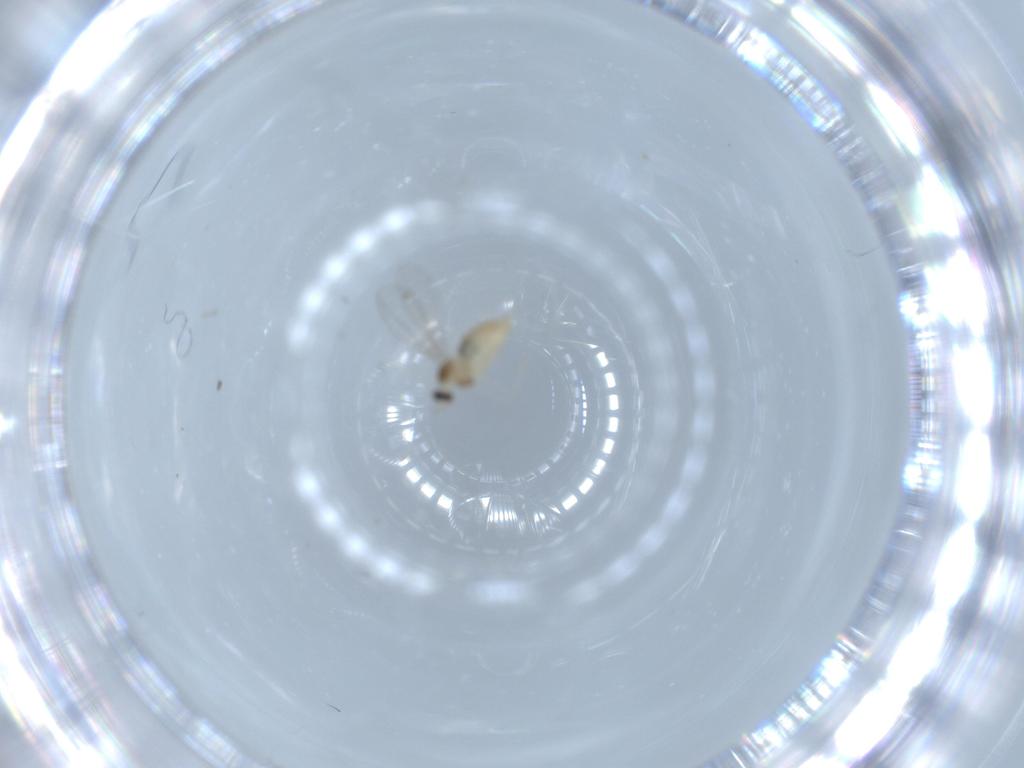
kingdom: Animalia
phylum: Arthropoda
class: Insecta
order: Diptera
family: Cecidomyiidae
